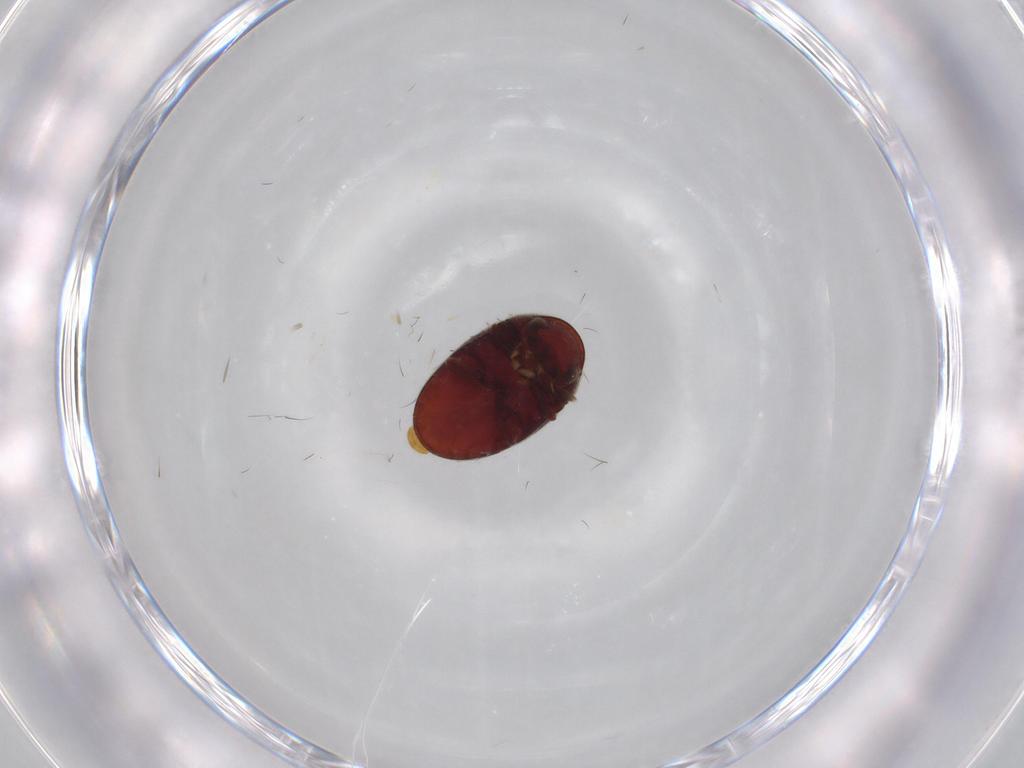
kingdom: Animalia
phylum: Arthropoda
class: Insecta
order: Coleoptera
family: Ptinidae
